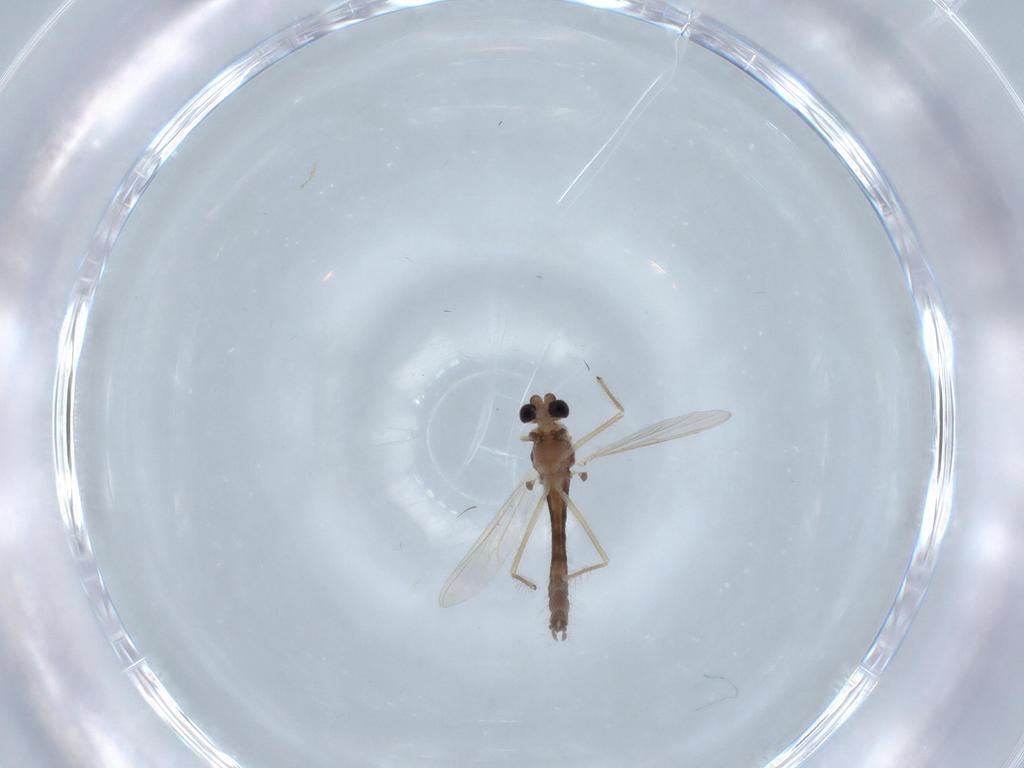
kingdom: Animalia
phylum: Arthropoda
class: Insecta
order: Diptera
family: Chironomidae
